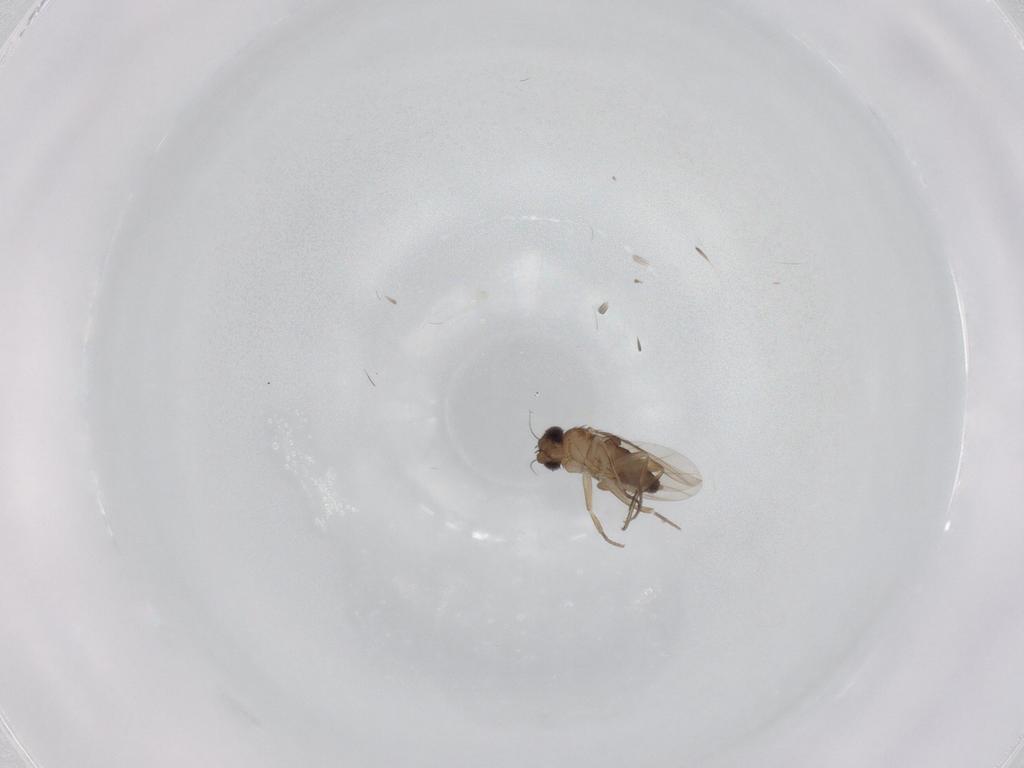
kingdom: Animalia
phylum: Arthropoda
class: Insecta
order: Diptera
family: Phoridae
